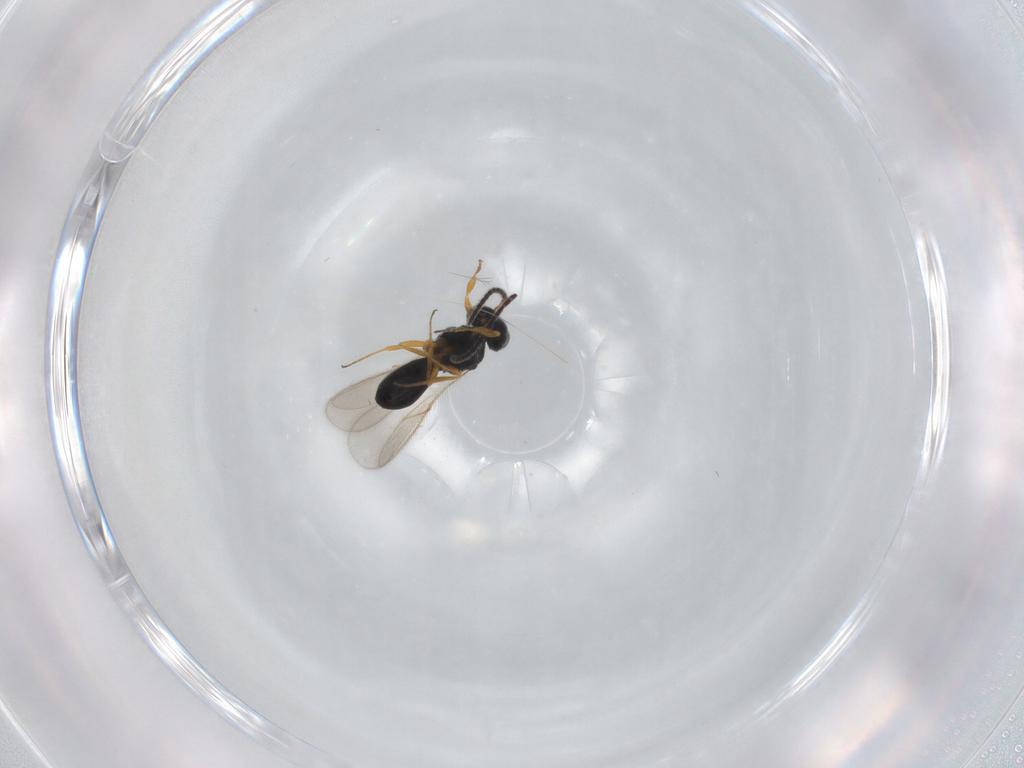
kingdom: Animalia
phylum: Arthropoda
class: Insecta
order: Hymenoptera
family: Scelionidae
